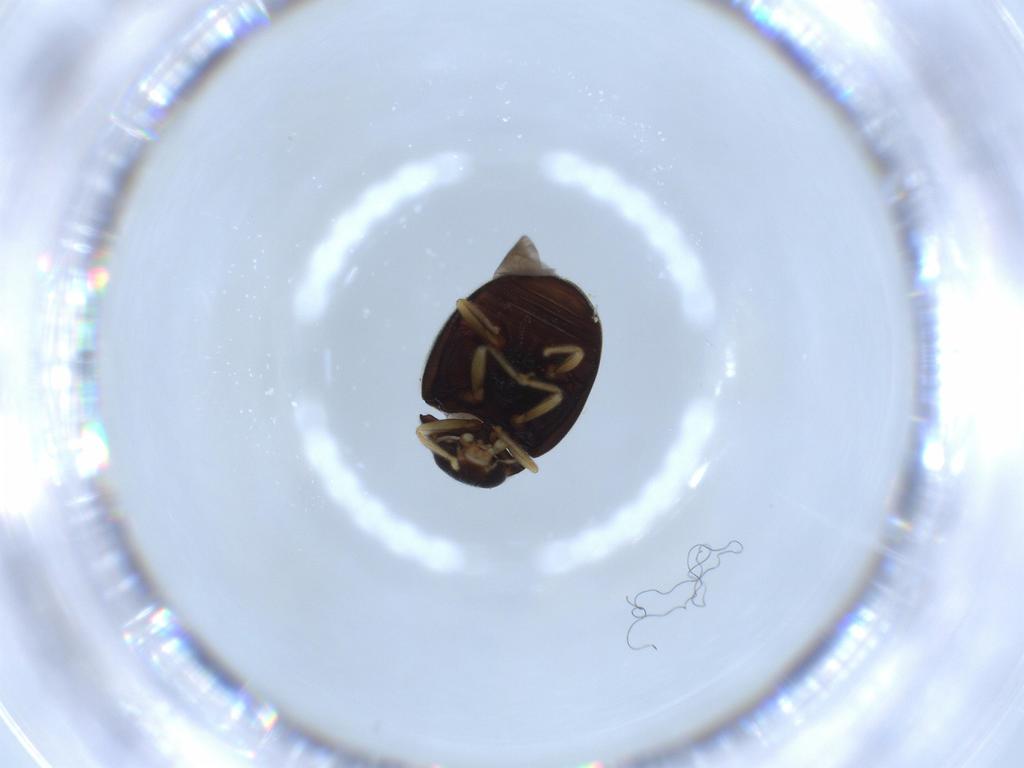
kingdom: Animalia
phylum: Arthropoda
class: Insecta
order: Coleoptera
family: Coccinellidae
